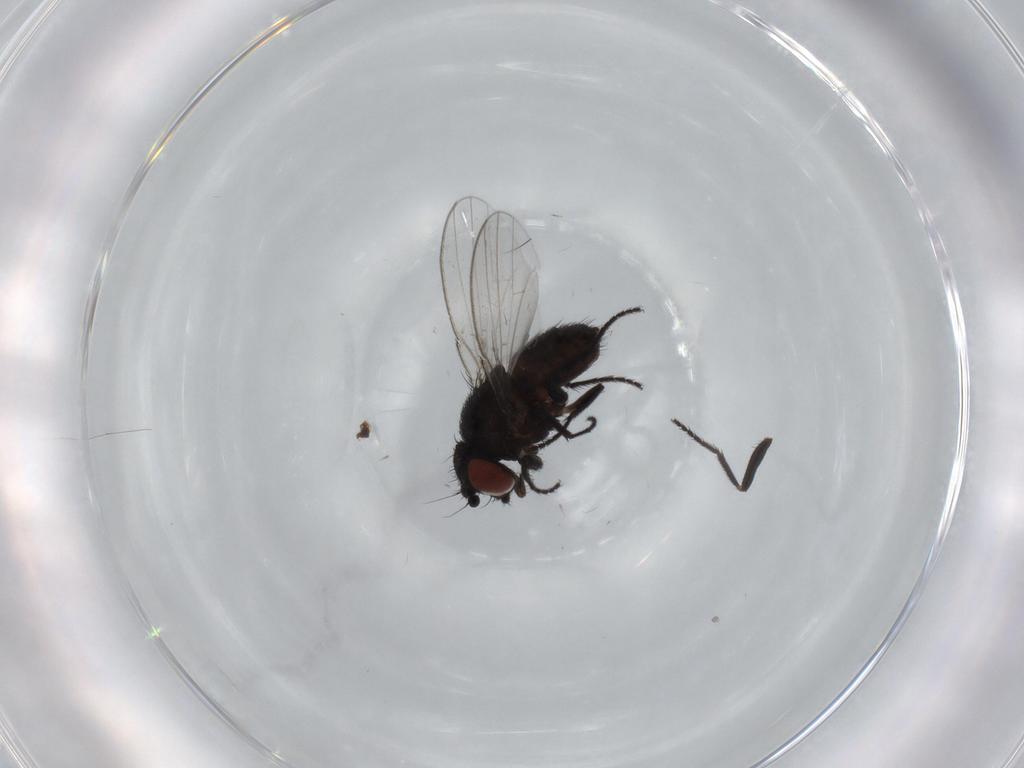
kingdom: Animalia
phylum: Arthropoda
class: Insecta
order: Diptera
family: Milichiidae
